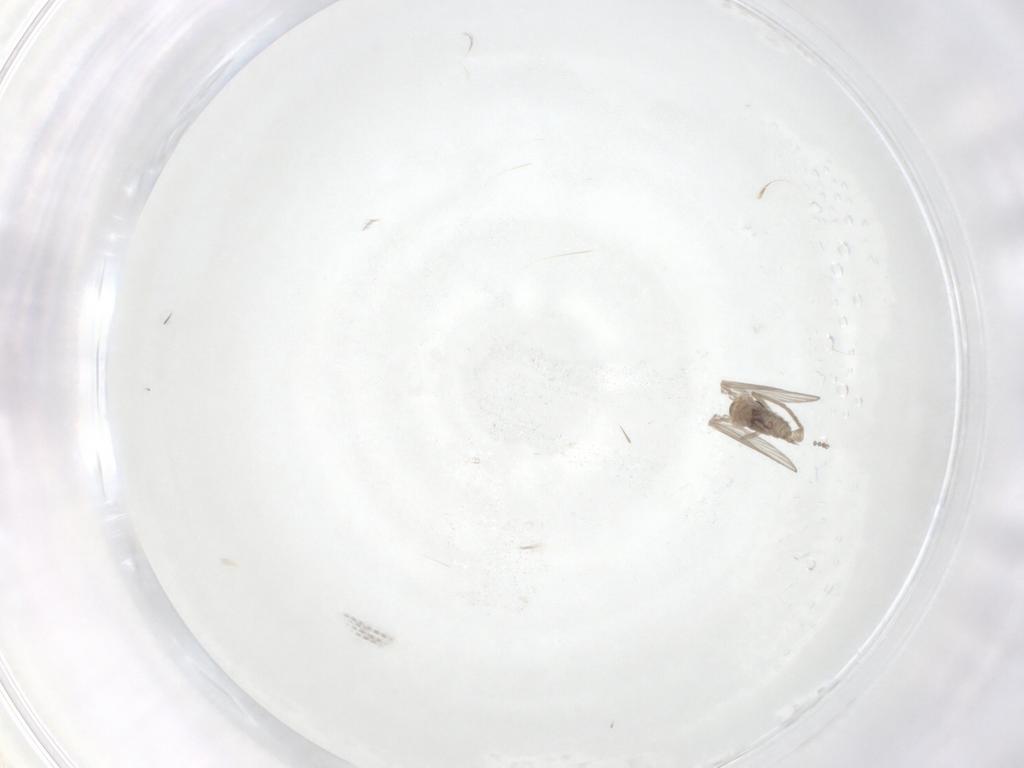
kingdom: Animalia
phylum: Arthropoda
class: Insecta
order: Diptera
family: Psychodidae
